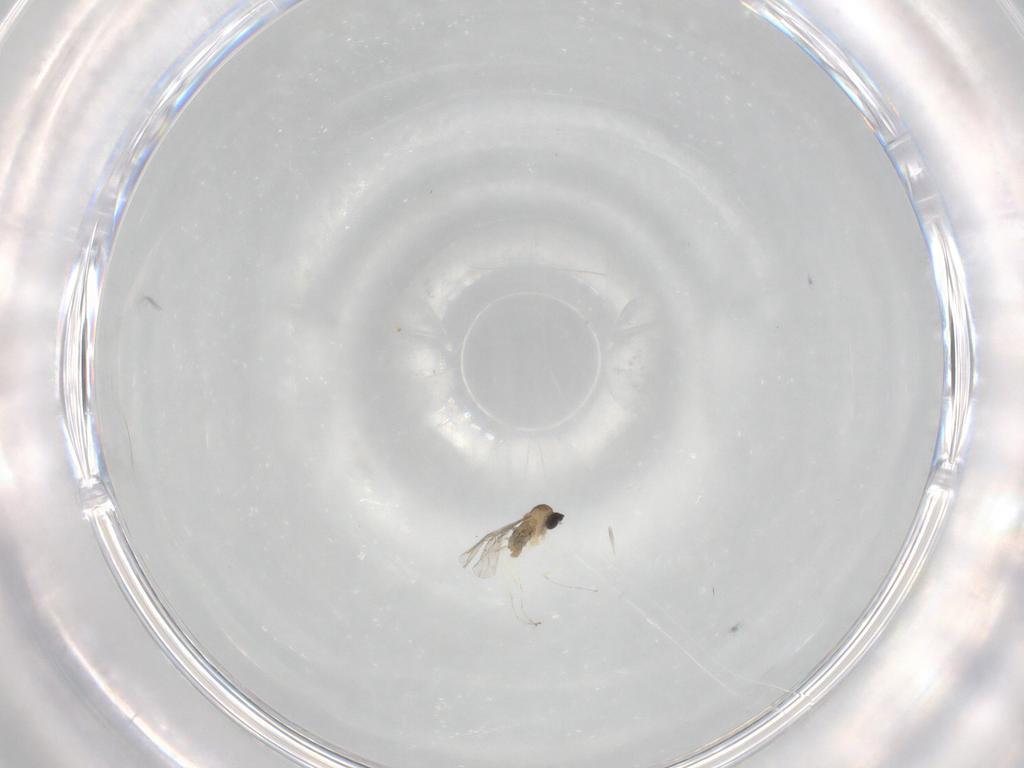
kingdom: Animalia
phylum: Arthropoda
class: Insecta
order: Diptera
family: Cecidomyiidae
